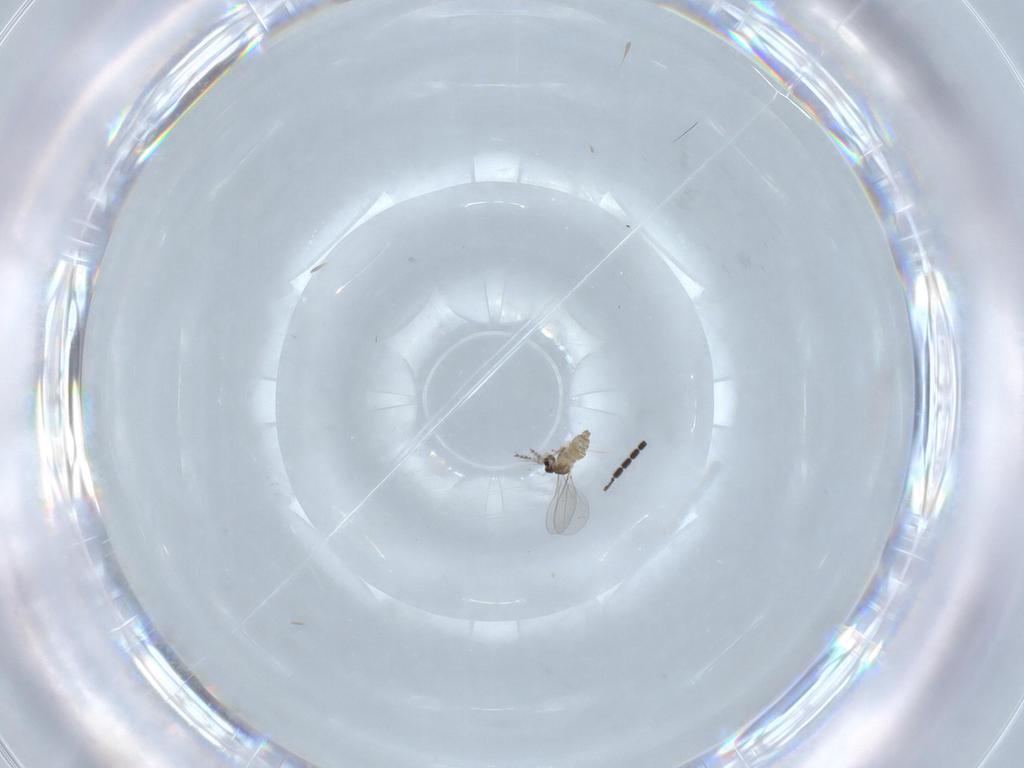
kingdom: Animalia
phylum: Arthropoda
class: Insecta
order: Diptera
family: Sciaridae
